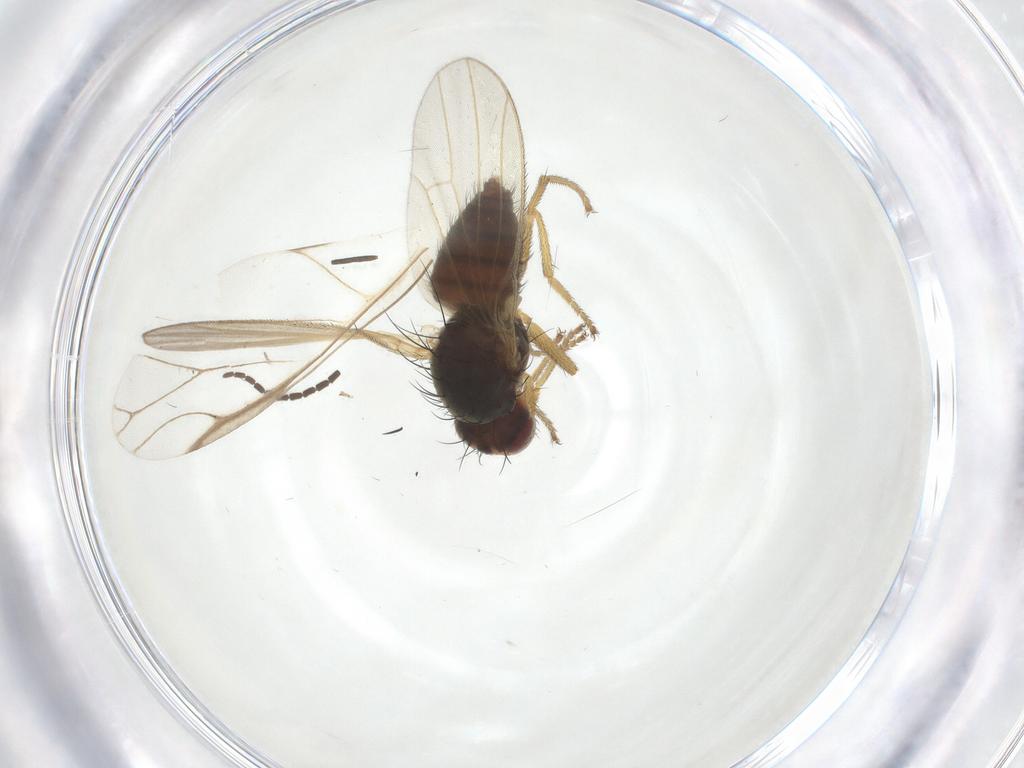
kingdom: Animalia
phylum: Arthropoda
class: Insecta
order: Diptera
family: Heleomyzidae
